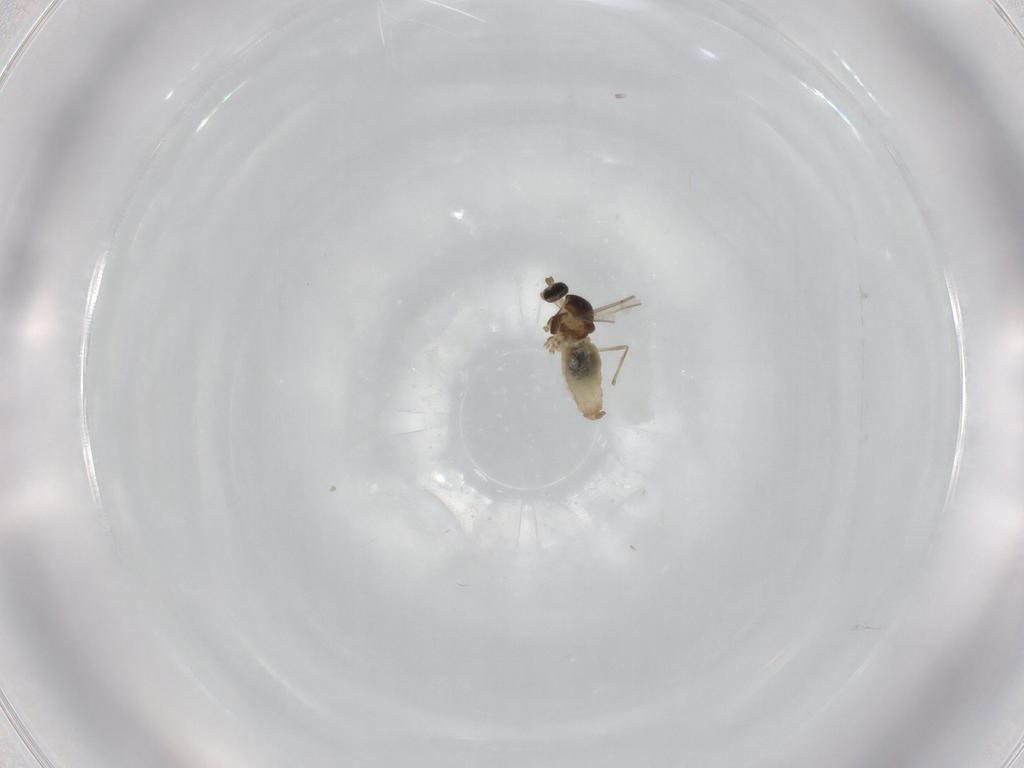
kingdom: Animalia
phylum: Arthropoda
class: Insecta
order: Diptera
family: Cecidomyiidae
